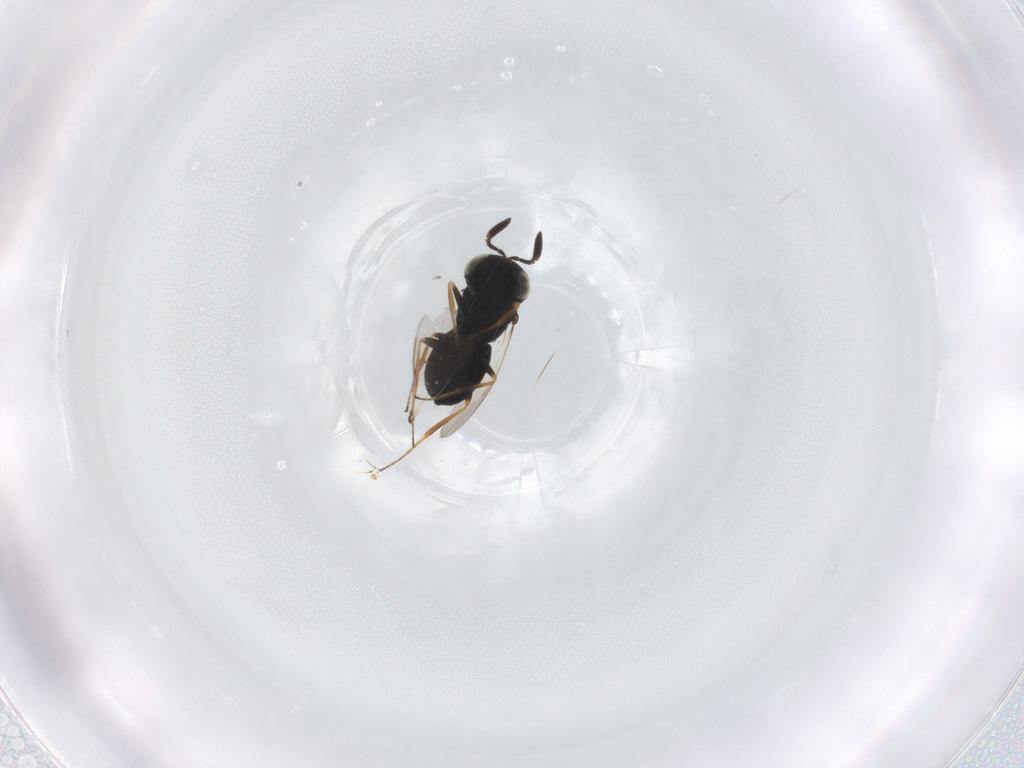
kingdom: Animalia
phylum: Arthropoda
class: Insecta
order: Hymenoptera
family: Scelionidae
